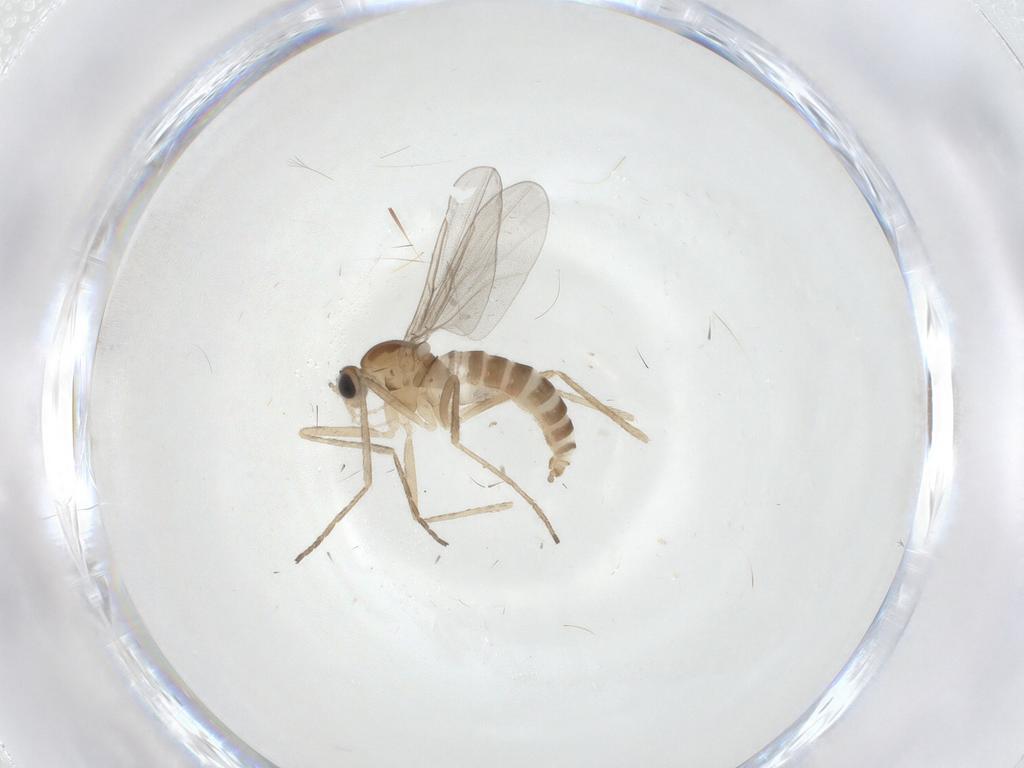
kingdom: Animalia
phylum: Arthropoda
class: Insecta
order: Diptera
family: Cecidomyiidae
